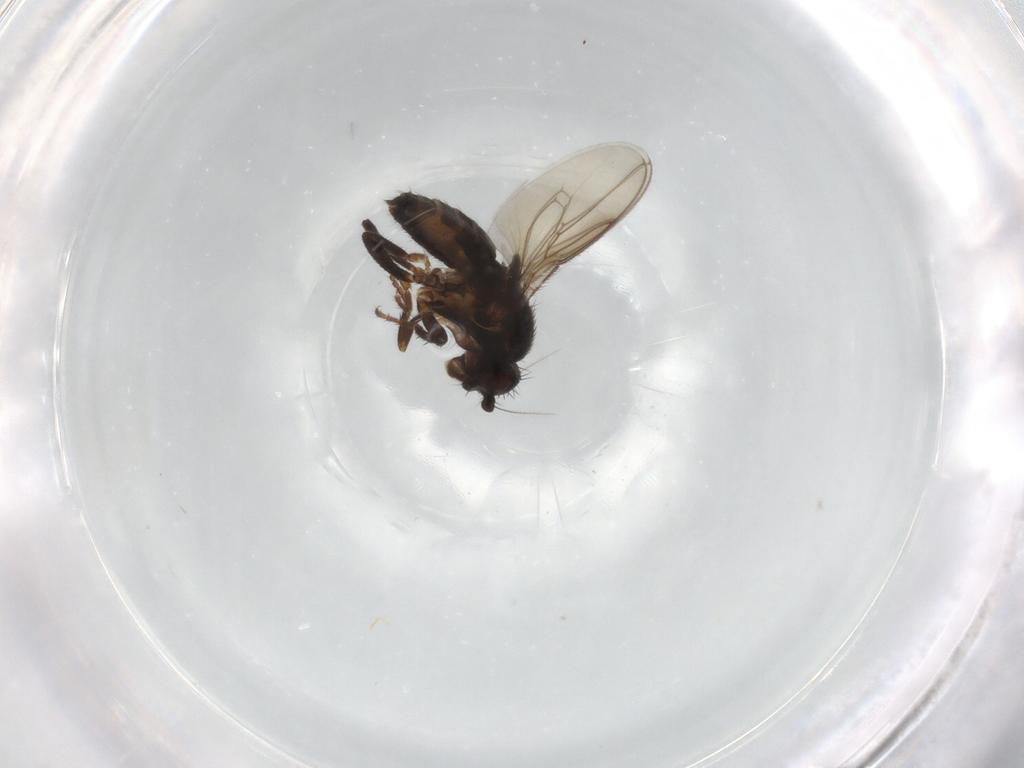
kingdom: Animalia
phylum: Arthropoda
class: Insecta
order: Diptera
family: Sphaeroceridae
